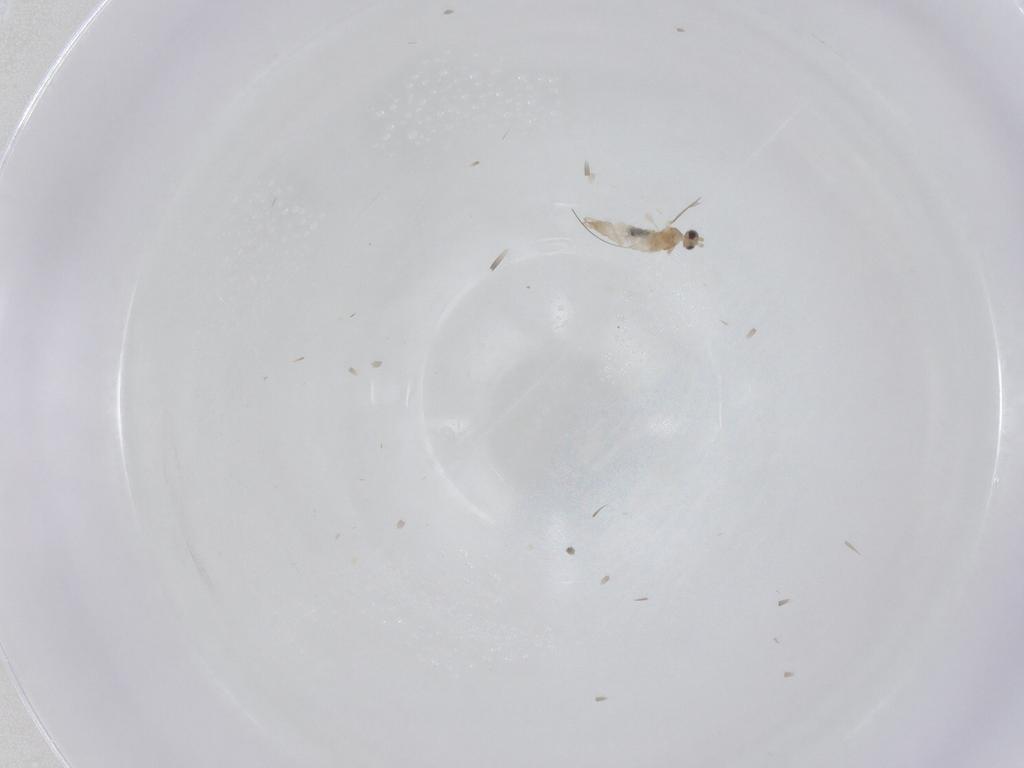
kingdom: Animalia
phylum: Arthropoda
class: Insecta
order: Diptera
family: Cecidomyiidae
